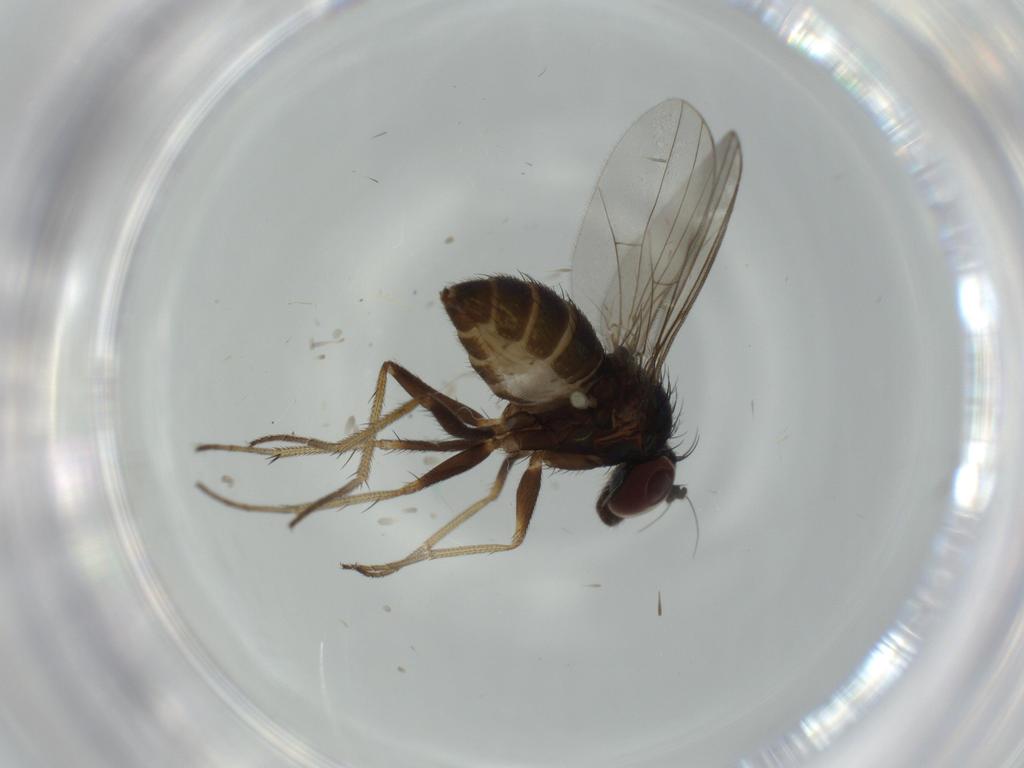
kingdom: Animalia
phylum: Arthropoda
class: Insecta
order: Diptera
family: Dolichopodidae
